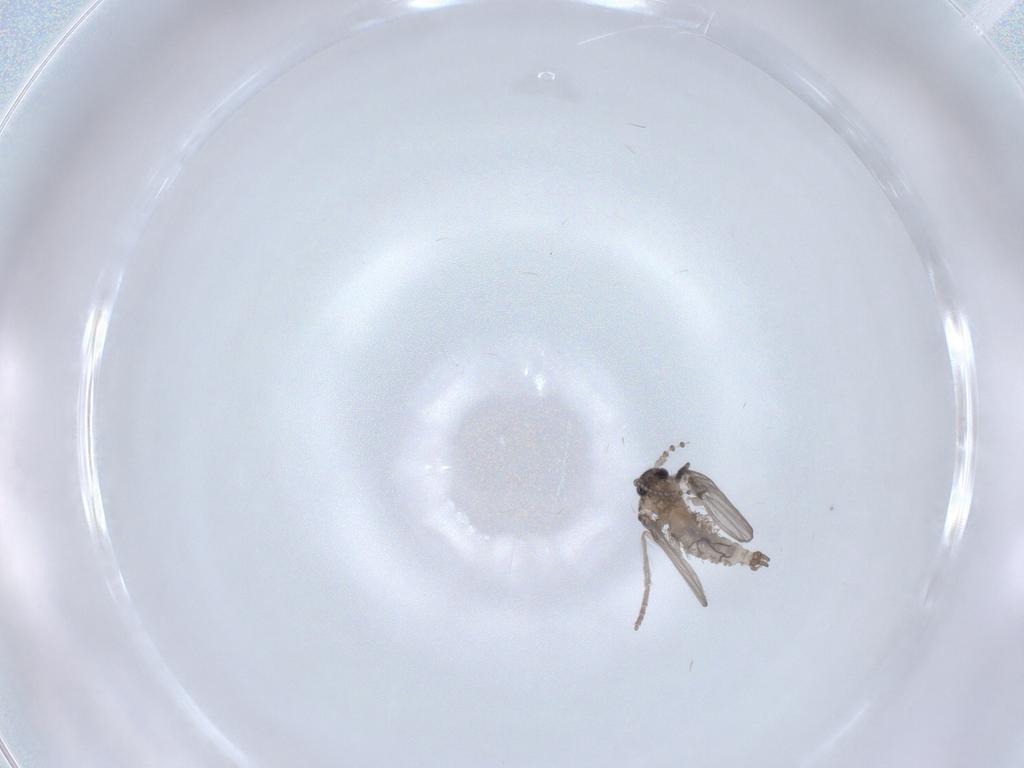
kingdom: Animalia
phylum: Arthropoda
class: Insecta
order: Diptera
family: Psychodidae
